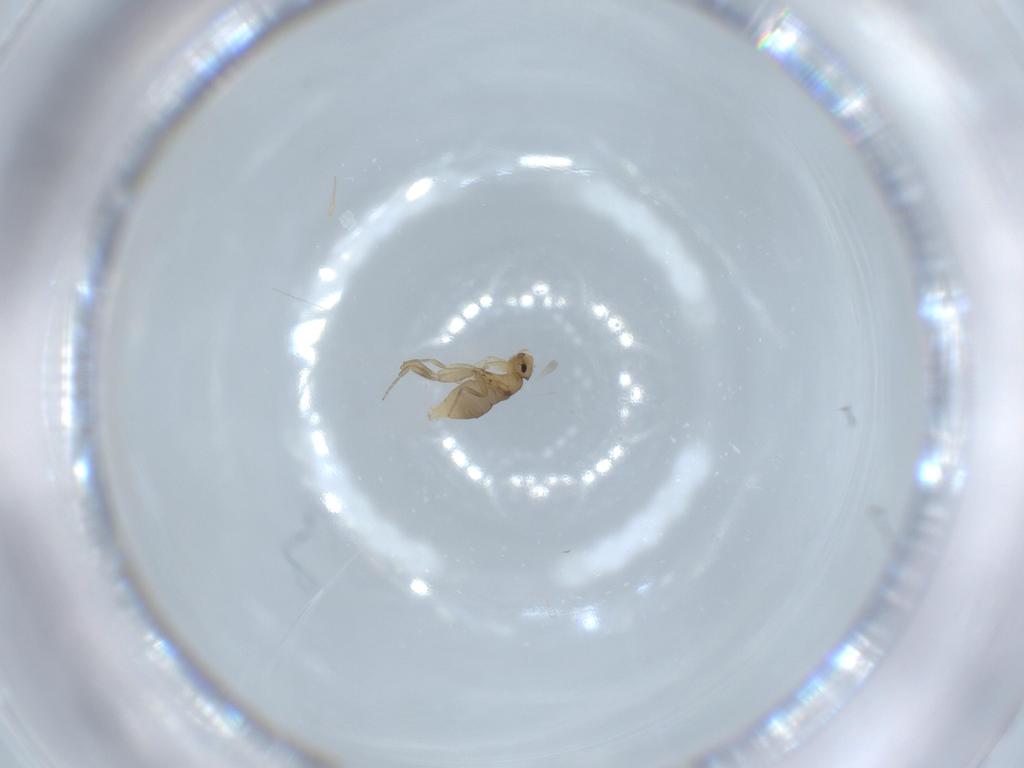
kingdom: Animalia
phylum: Arthropoda
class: Insecta
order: Diptera
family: Phoridae
